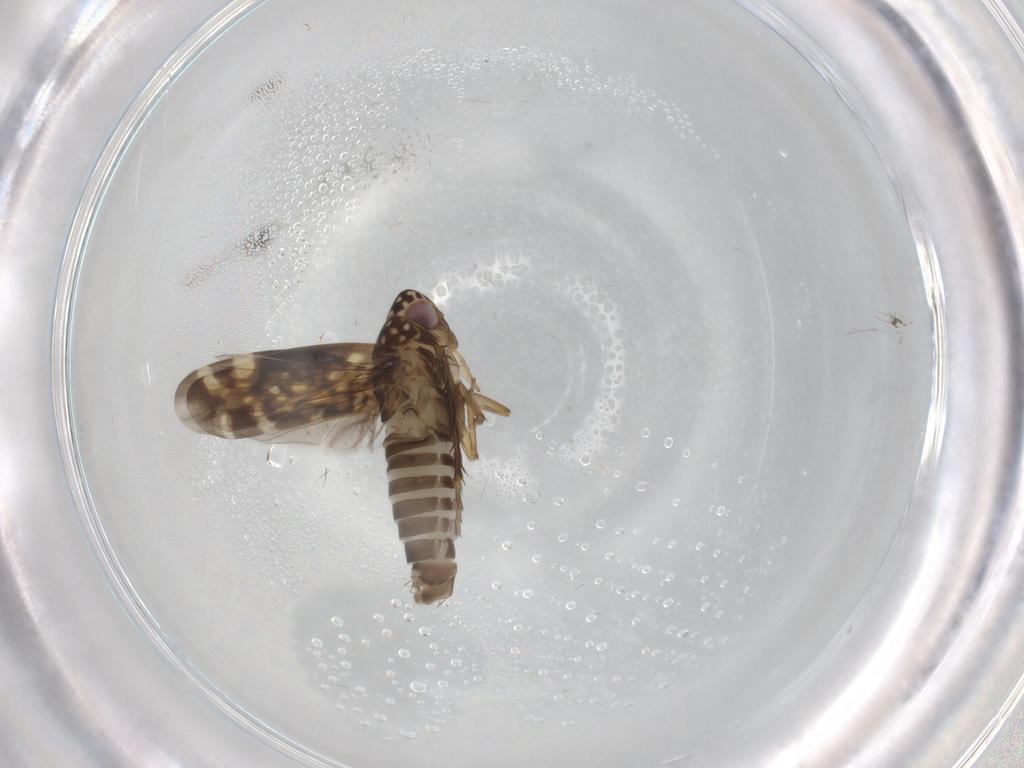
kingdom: Animalia
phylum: Arthropoda
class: Insecta
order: Hemiptera
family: Cicadellidae
